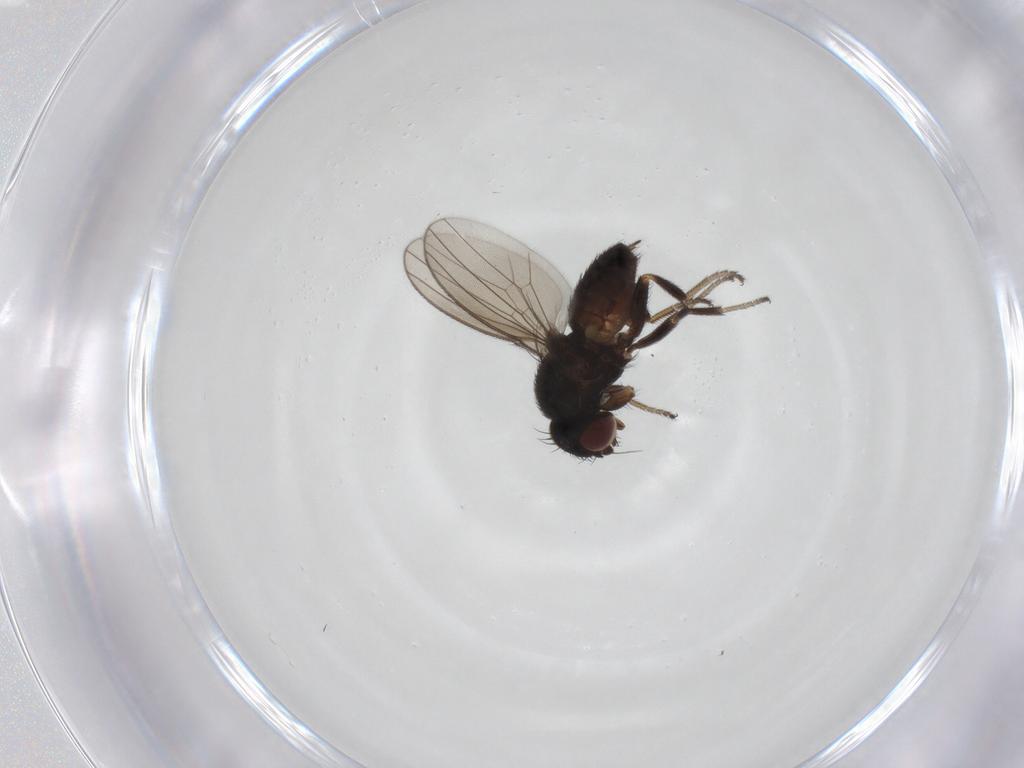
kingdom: Animalia
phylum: Arthropoda
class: Insecta
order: Diptera
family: Milichiidae
